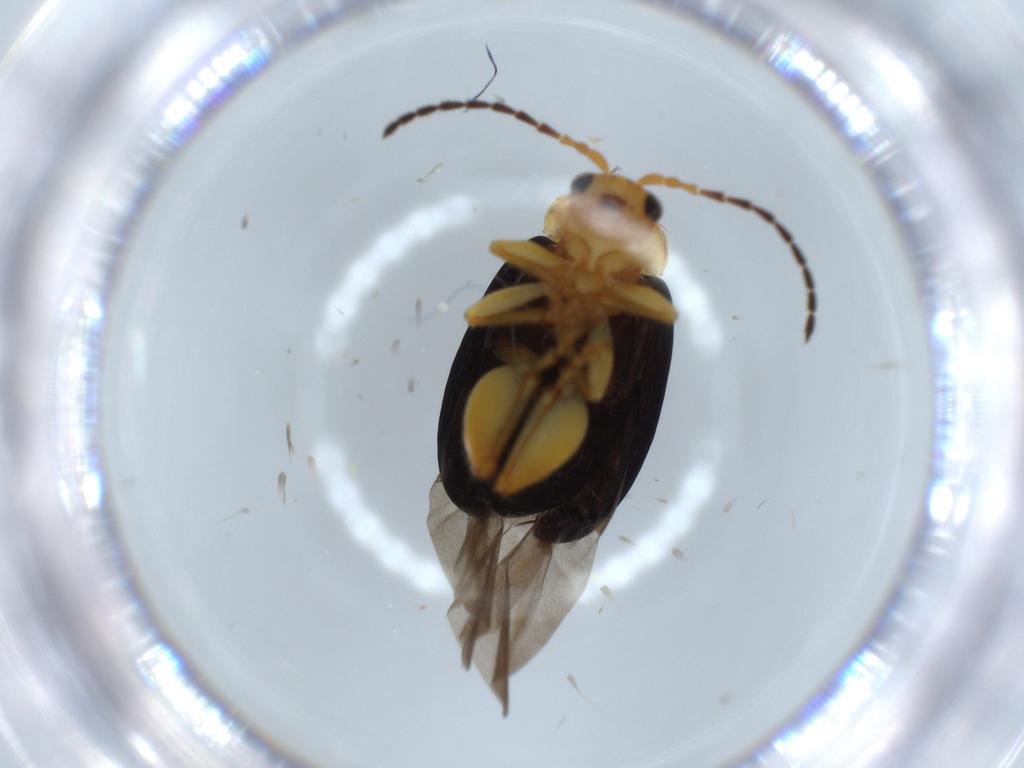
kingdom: Animalia
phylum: Arthropoda
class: Insecta
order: Coleoptera
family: Chrysomelidae
